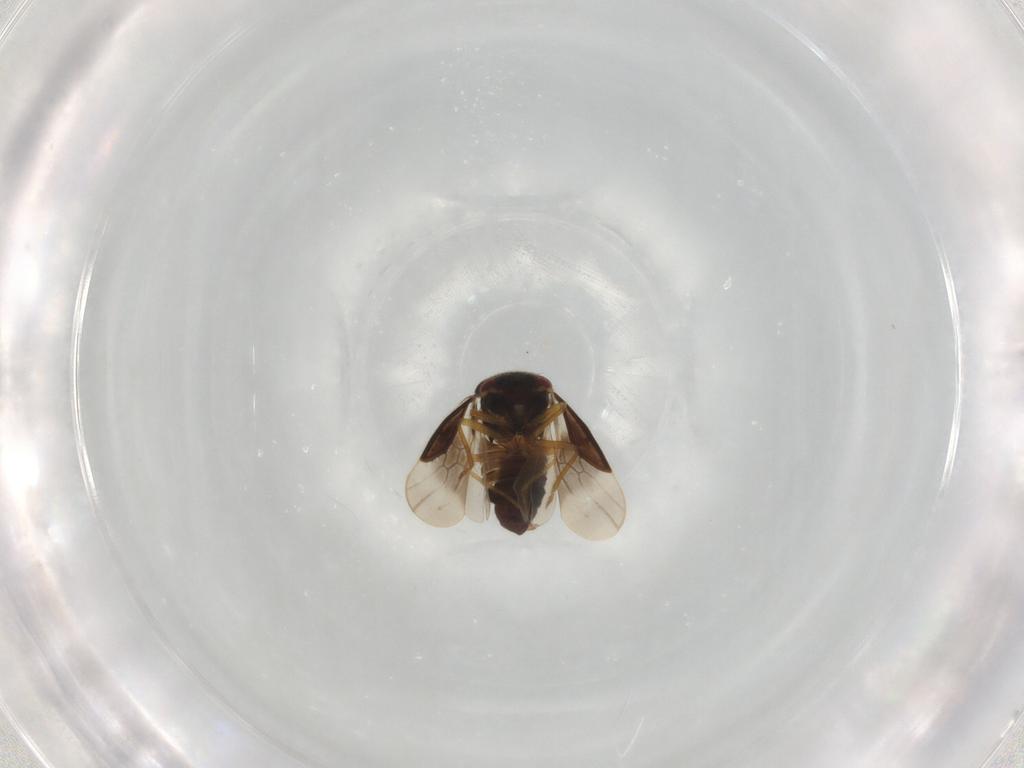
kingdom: Animalia
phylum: Arthropoda
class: Insecta
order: Hemiptera
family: Schizopteridae
